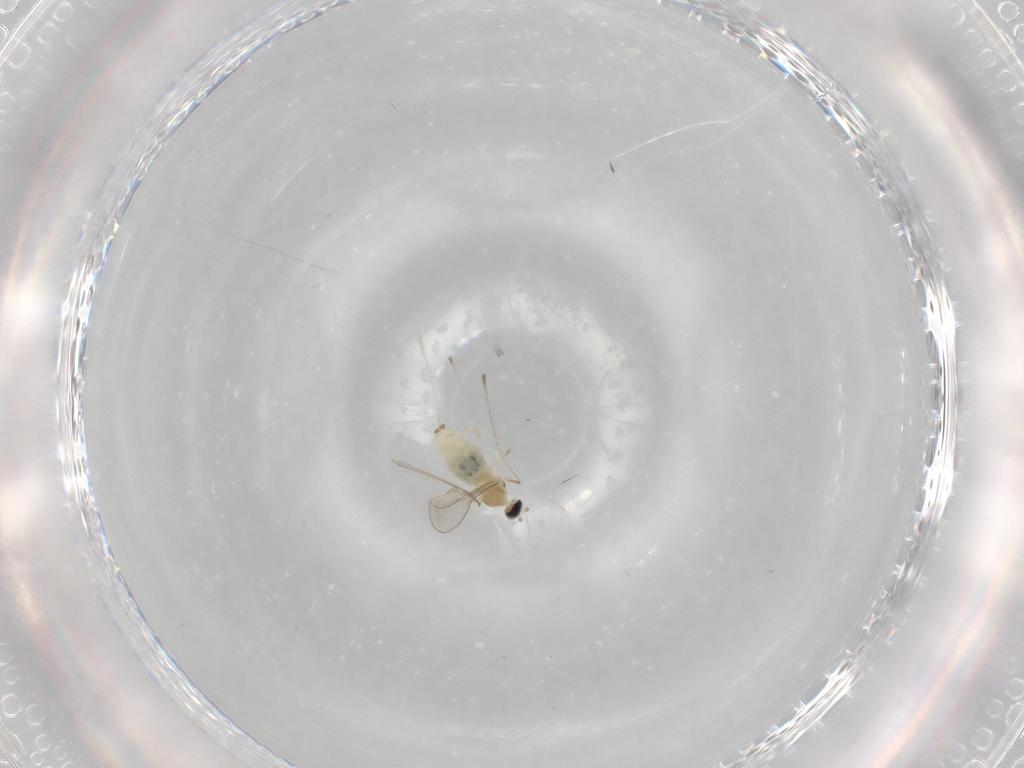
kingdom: Animalia
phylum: Arthropoda
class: Insecta
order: Diptera
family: Cecidomyiidae
